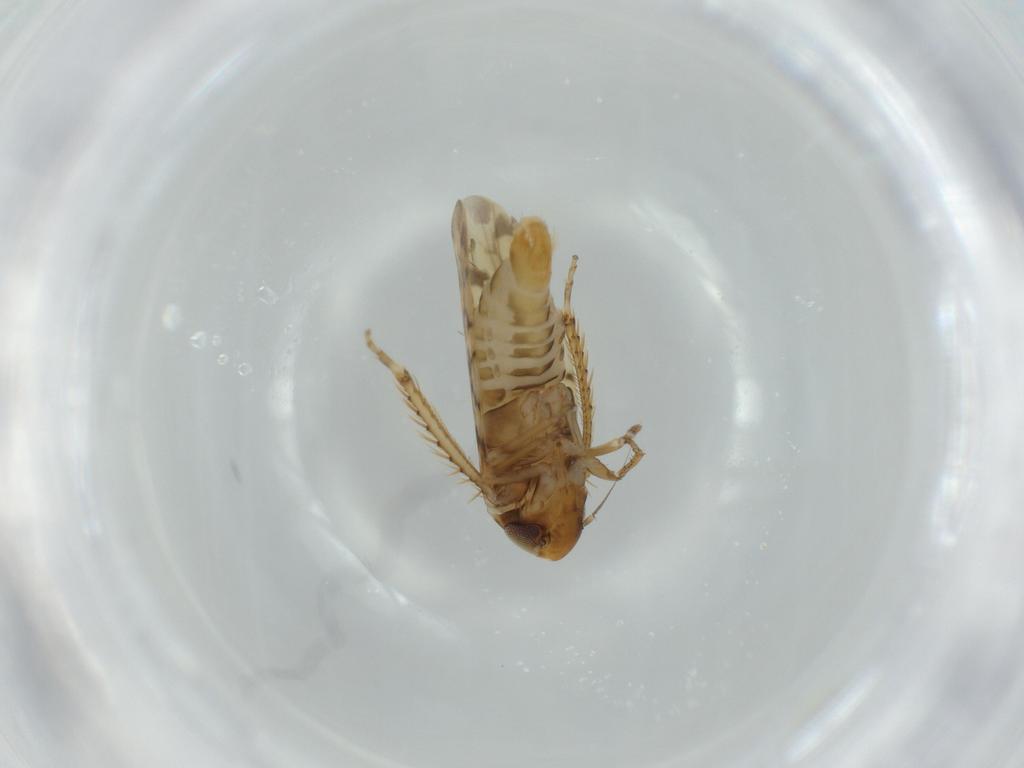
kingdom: Animalia
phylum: Arthropoda
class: Insecta
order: Hemiptera
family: Cicadellidae
